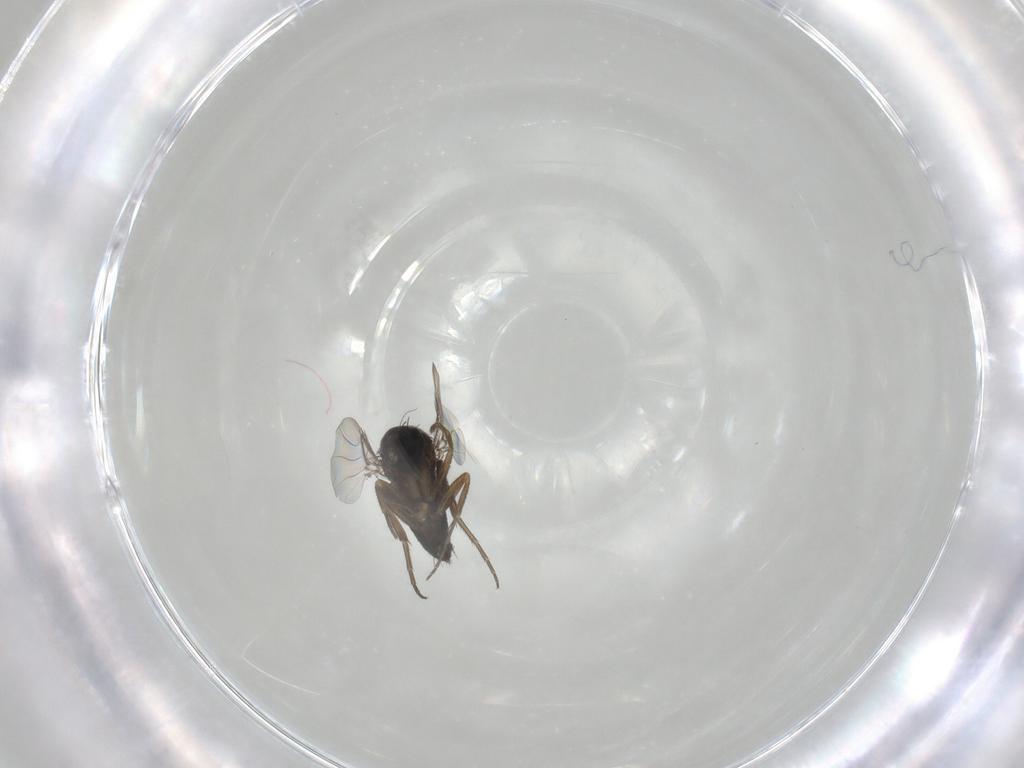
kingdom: Animalia
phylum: Arthropoda
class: Insecta
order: Diptera
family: Phoridae
